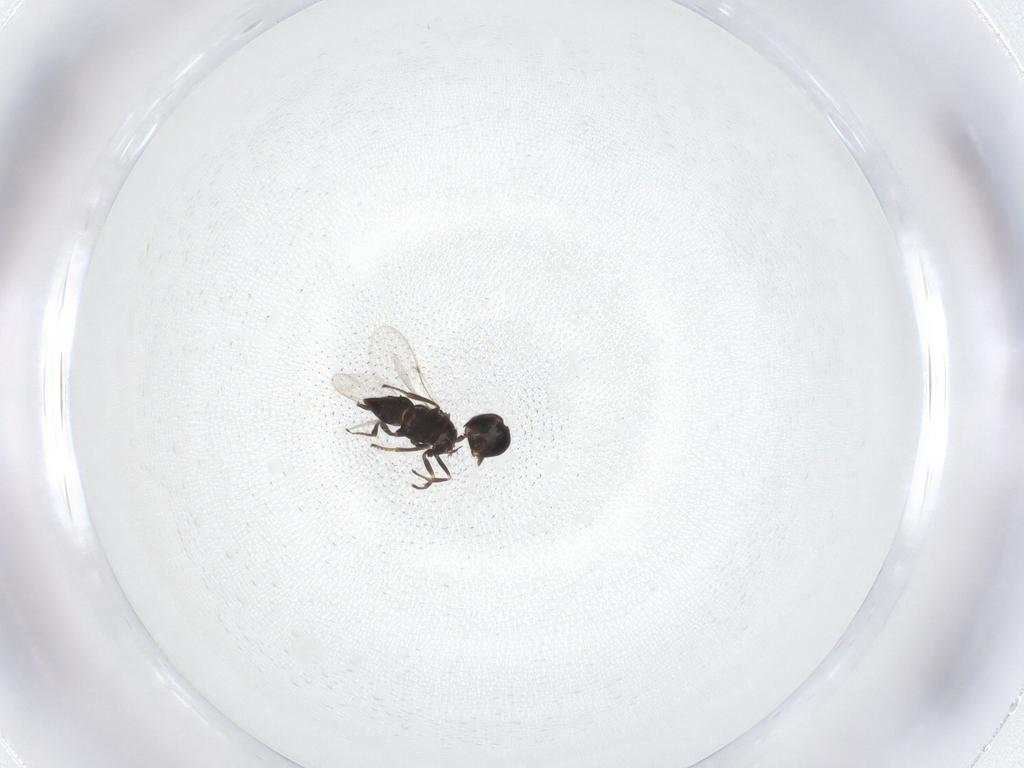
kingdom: Animalia
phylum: Arthropoda
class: Insecta
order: Hymenoptera
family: Encyrtidae
